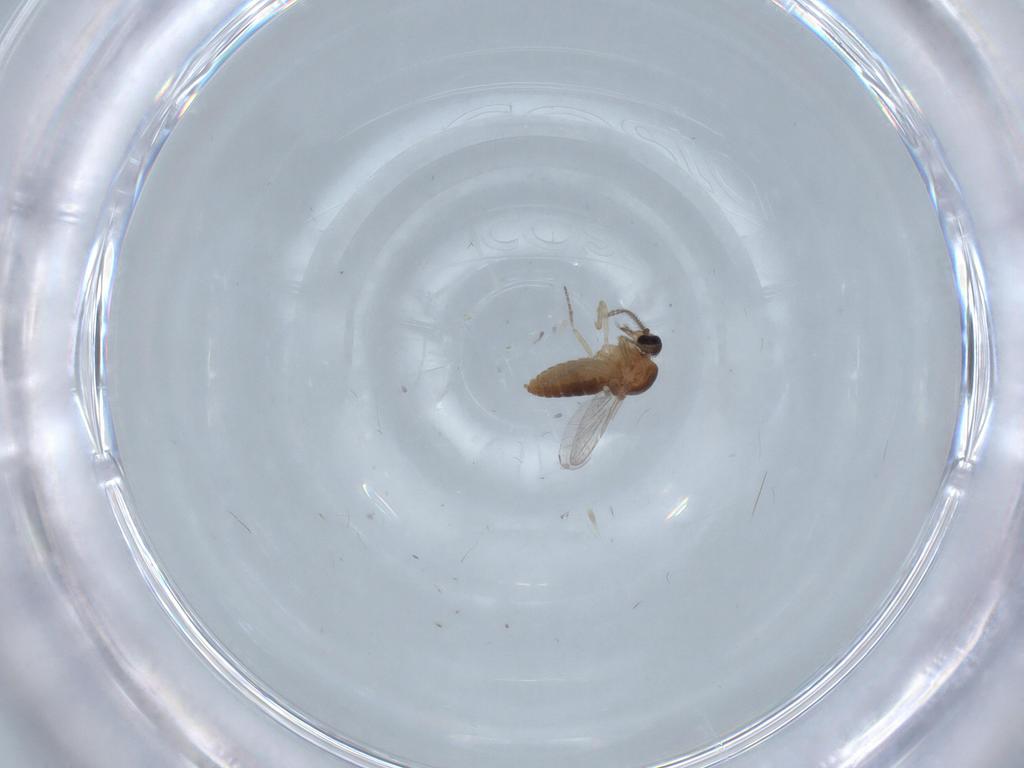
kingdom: Animalia
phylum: Arthropoda
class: Insecta
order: Diptera
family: Ceratopogonidae
